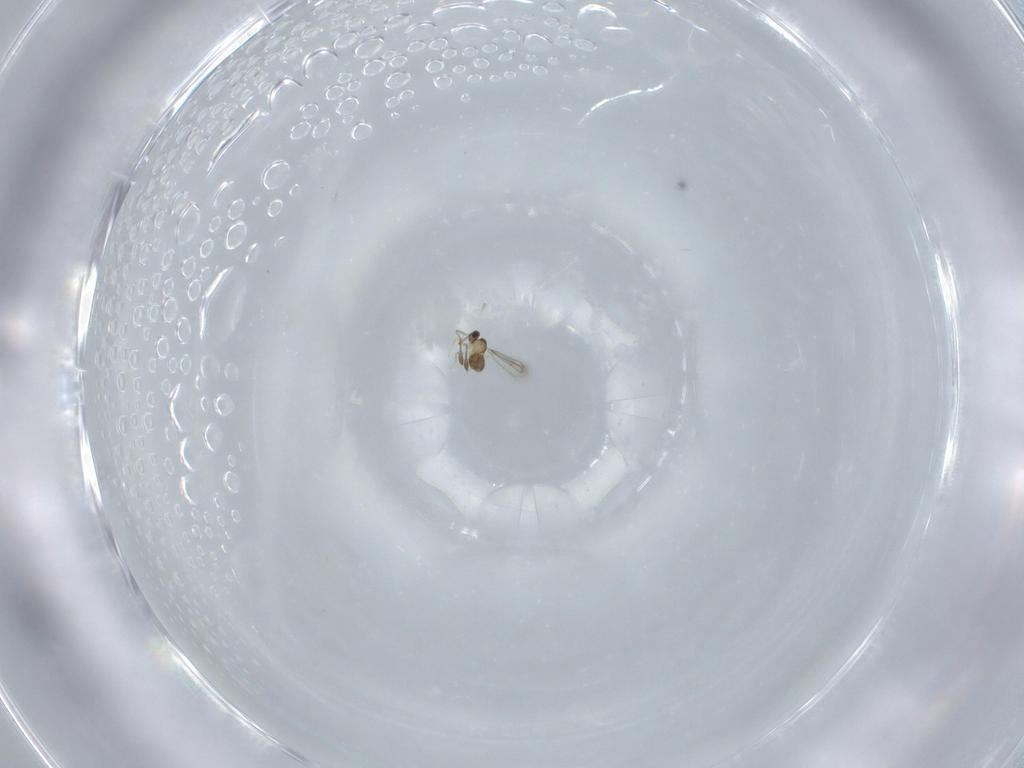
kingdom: Animalia
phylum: Arthropoda
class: Insecta
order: Hymenoptera
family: Mymaridae
